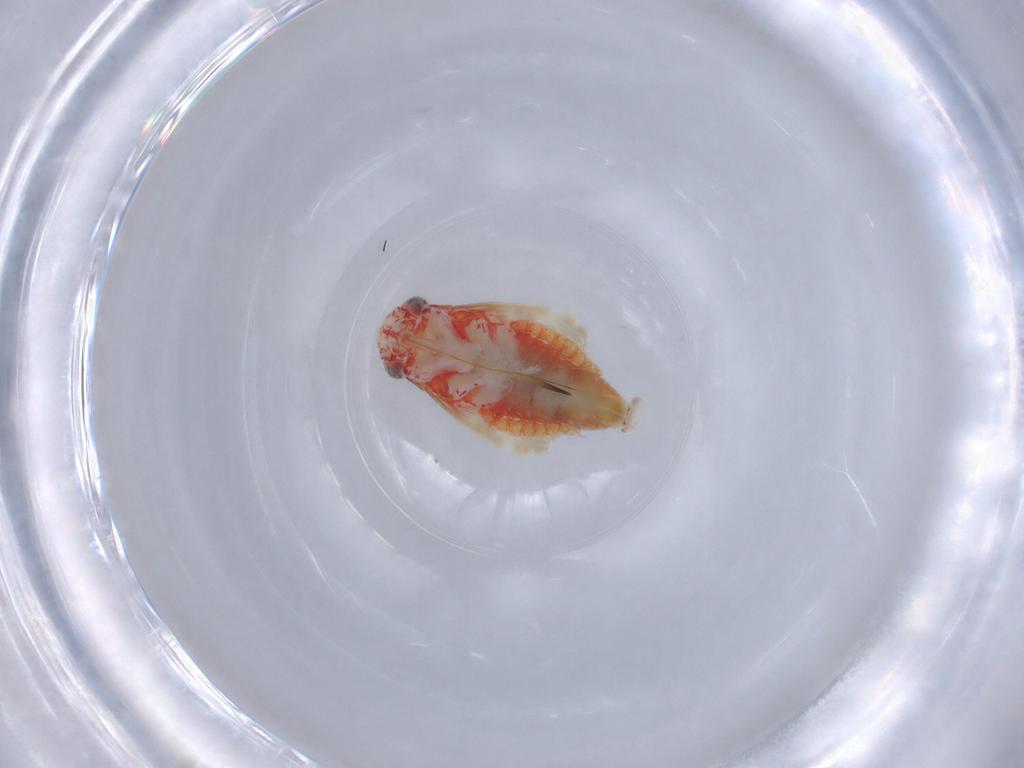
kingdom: Animalia
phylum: Arthropoda
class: Insecta
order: Hemiptera
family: Miridae
